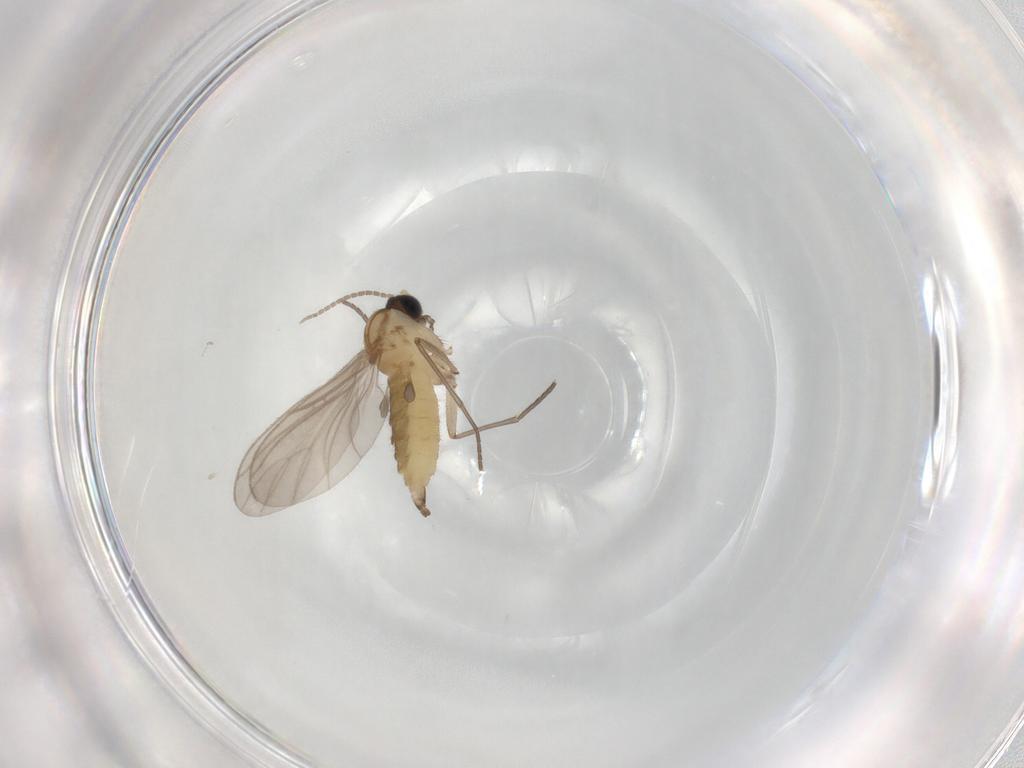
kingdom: Animalia
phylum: Arthropoda
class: Insecta
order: Diptera
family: Sciaridae
